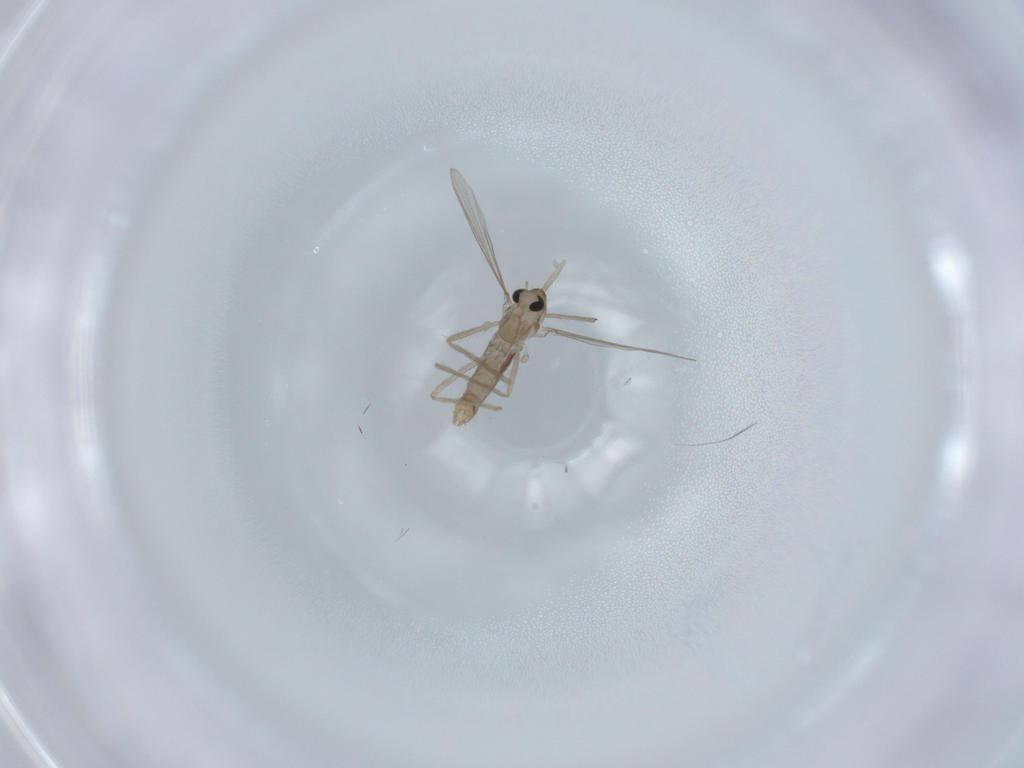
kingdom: Animalia
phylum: Arthropoda
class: Insecta
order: Diptera
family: Chironomidae
